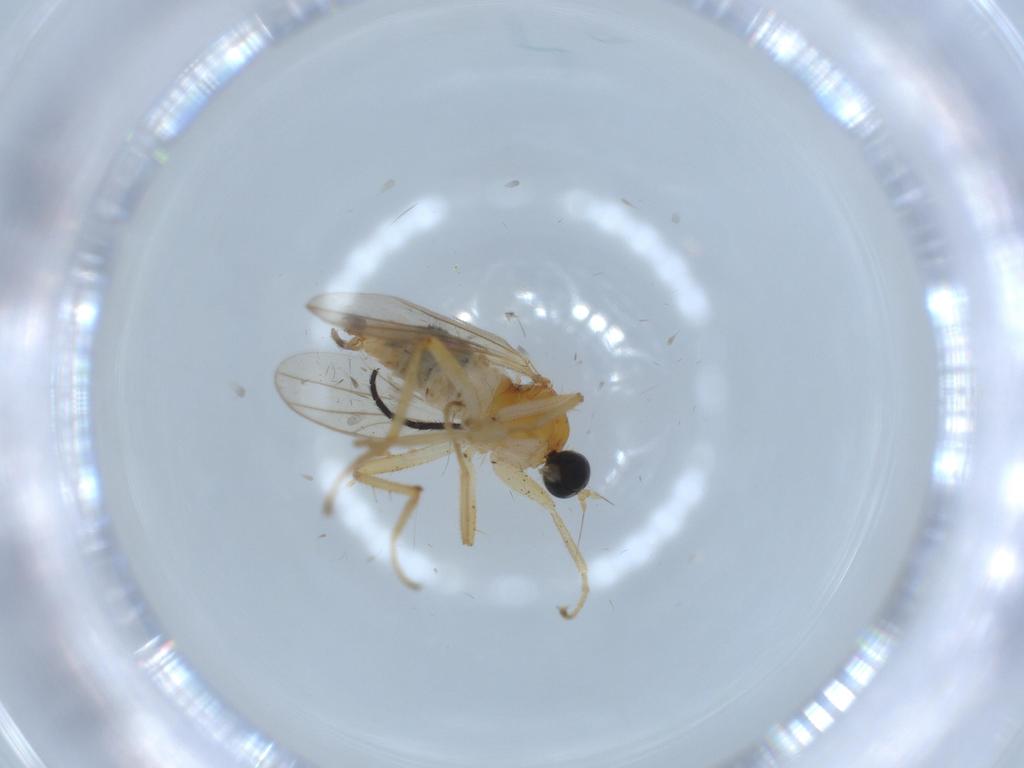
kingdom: Animalia
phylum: Arthropoda
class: Insecta
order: Diptera
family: Hybotidae
